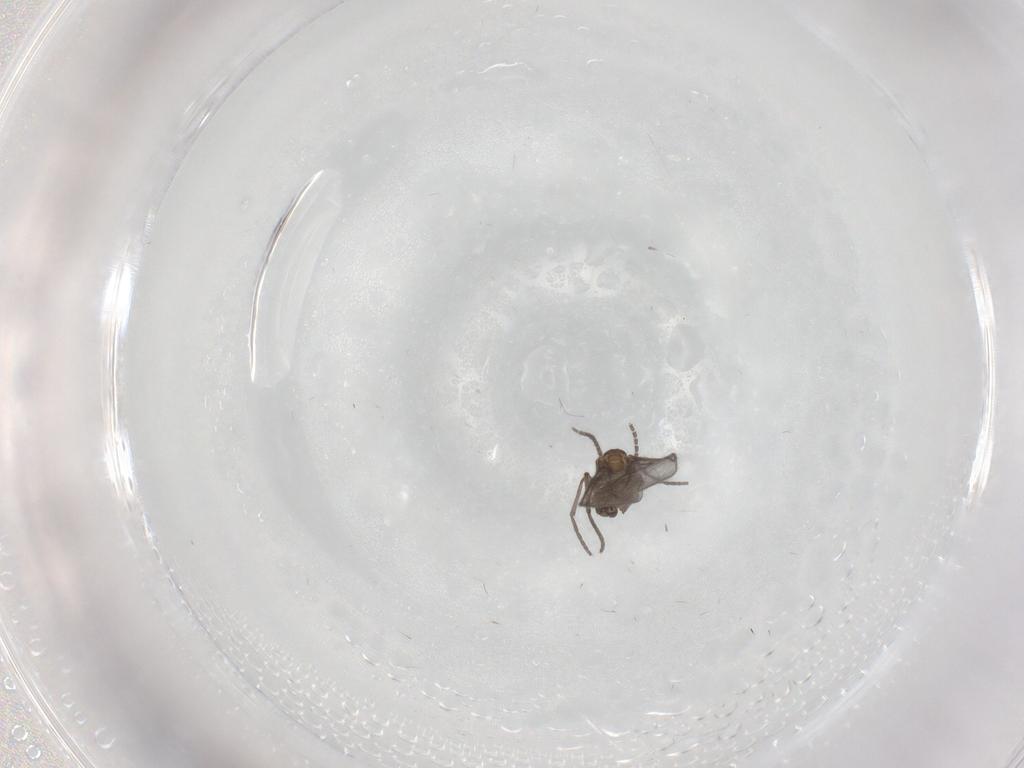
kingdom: Animalia
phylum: Arthropoda
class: Insecta
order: Diptera
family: Sciaridae
